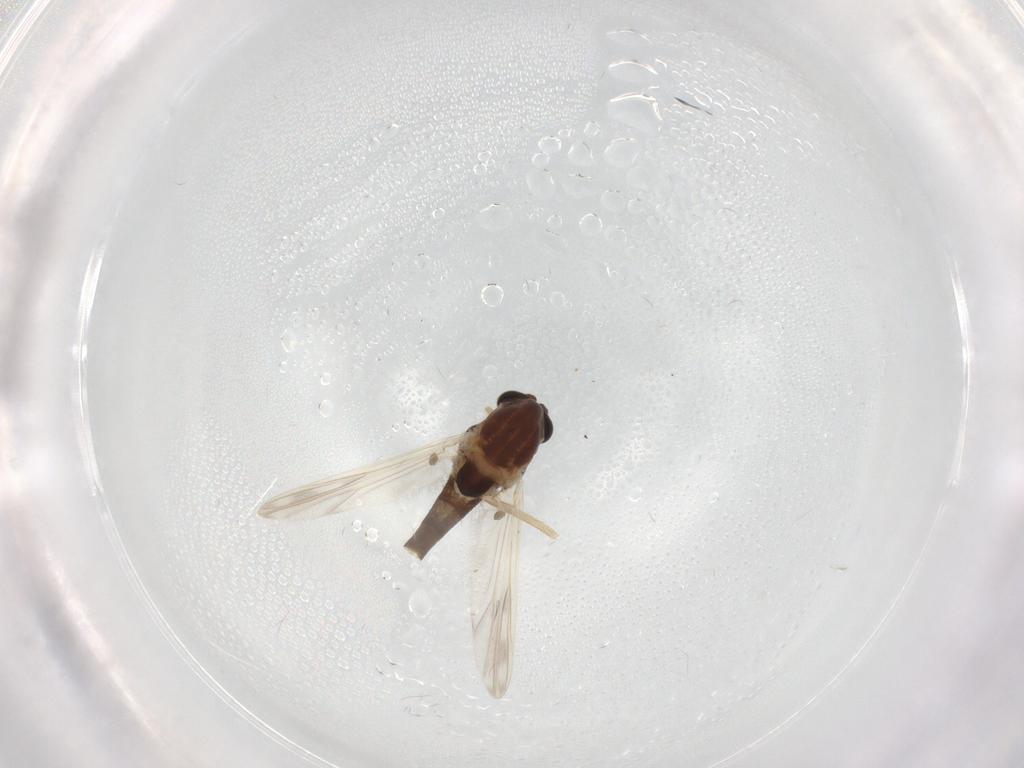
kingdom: Animalia
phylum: Arthropoda
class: Insecta
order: Diptera
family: Chironomidae
